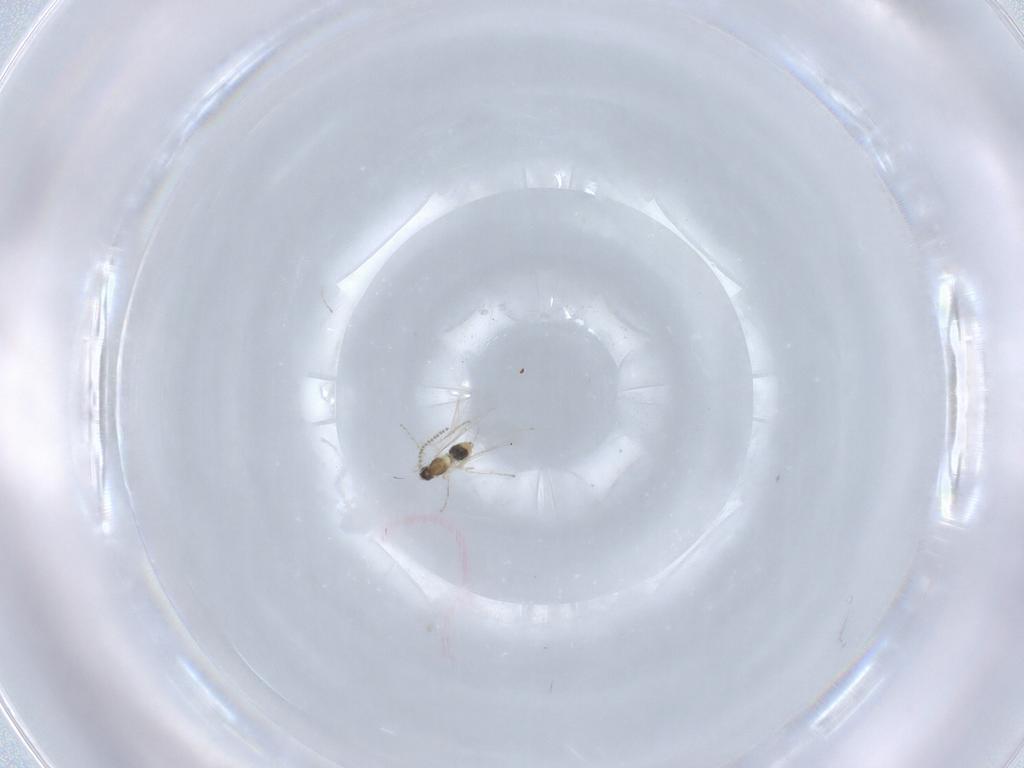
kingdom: Animalia
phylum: Arthropoda
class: Insecta
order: Diptera
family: Cecidomyiidae
